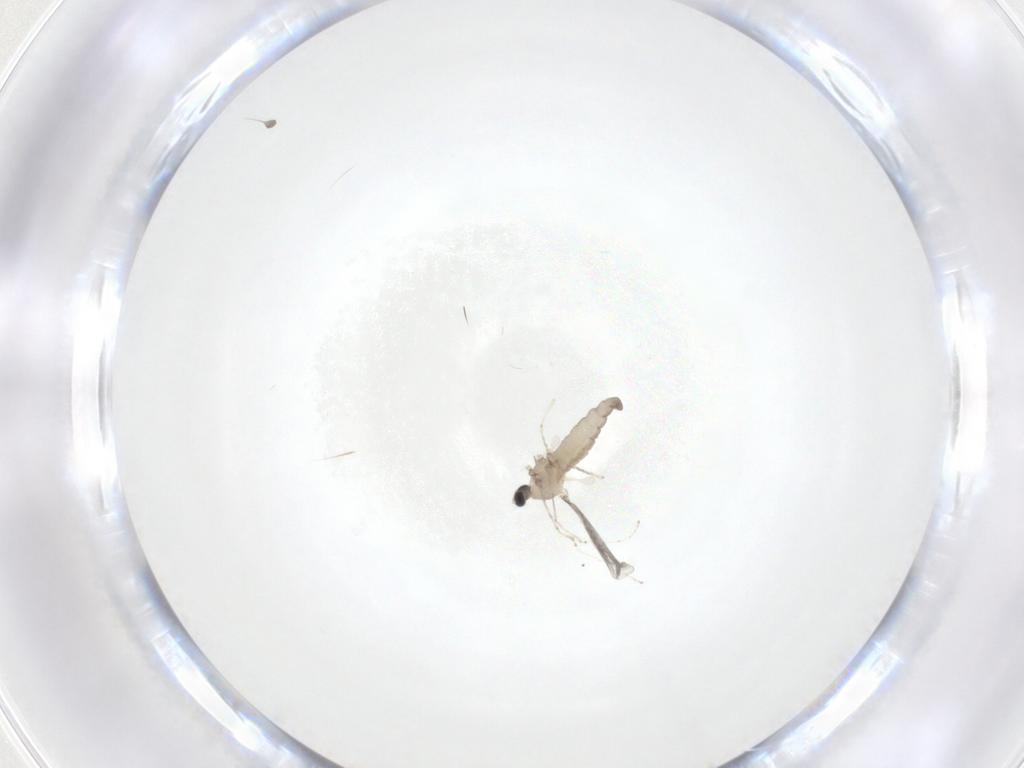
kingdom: Animalia
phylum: Arthropoda
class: Insecta
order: Diptera
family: Cecidomyiidae
